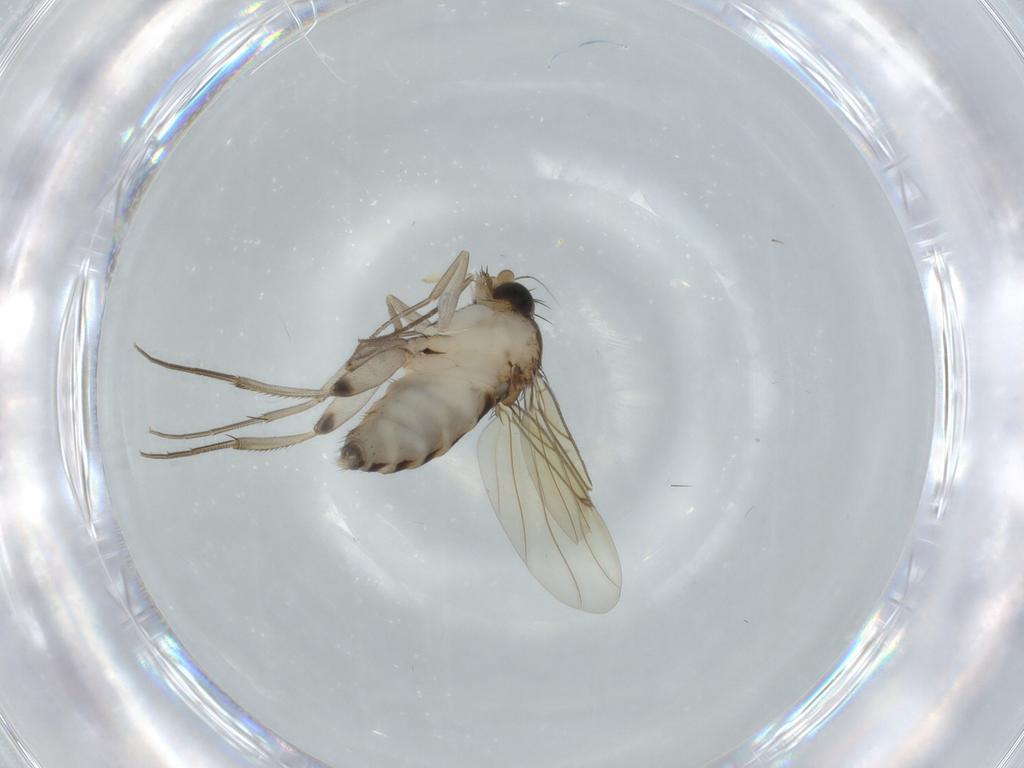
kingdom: Animalia
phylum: Arthropoda
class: Insecta
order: Diptera
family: Mycetophilidae
